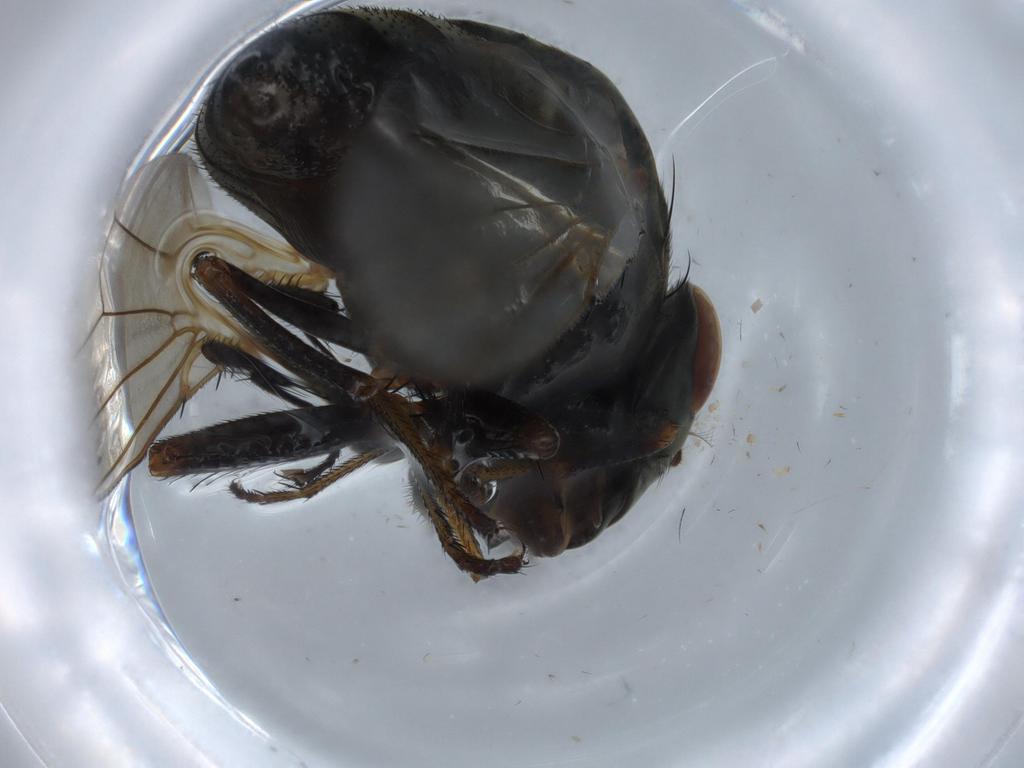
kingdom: Animalia
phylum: Arthropoda
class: Insecta
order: Diptera
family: Ephydridae
